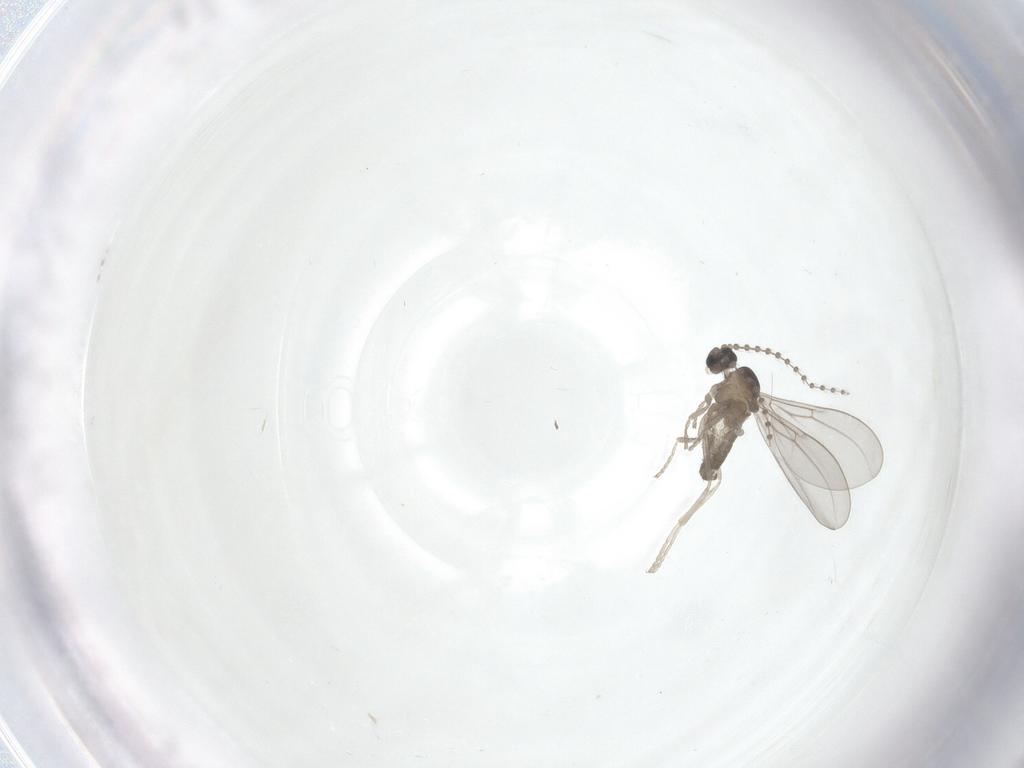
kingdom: Animalia
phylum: Arthropoda
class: Insecta
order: Diptera
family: Cecidomyiidae
